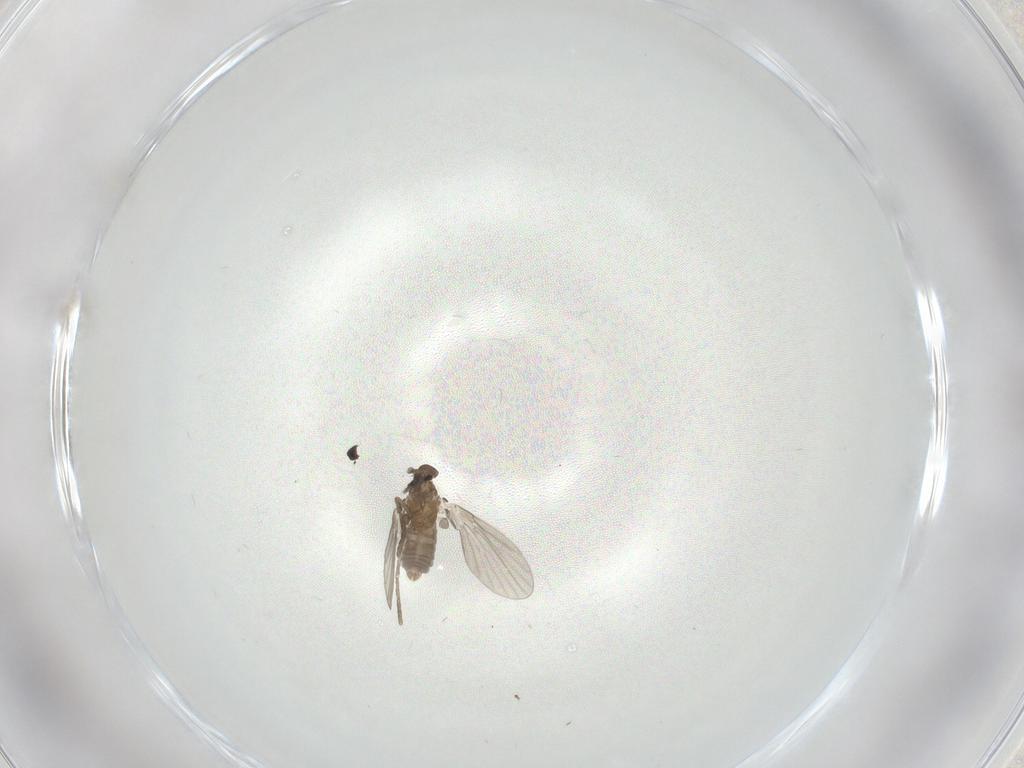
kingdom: Animalia
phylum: Arthropoda
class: Insecta
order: Diptera
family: Ceratopogonidae
